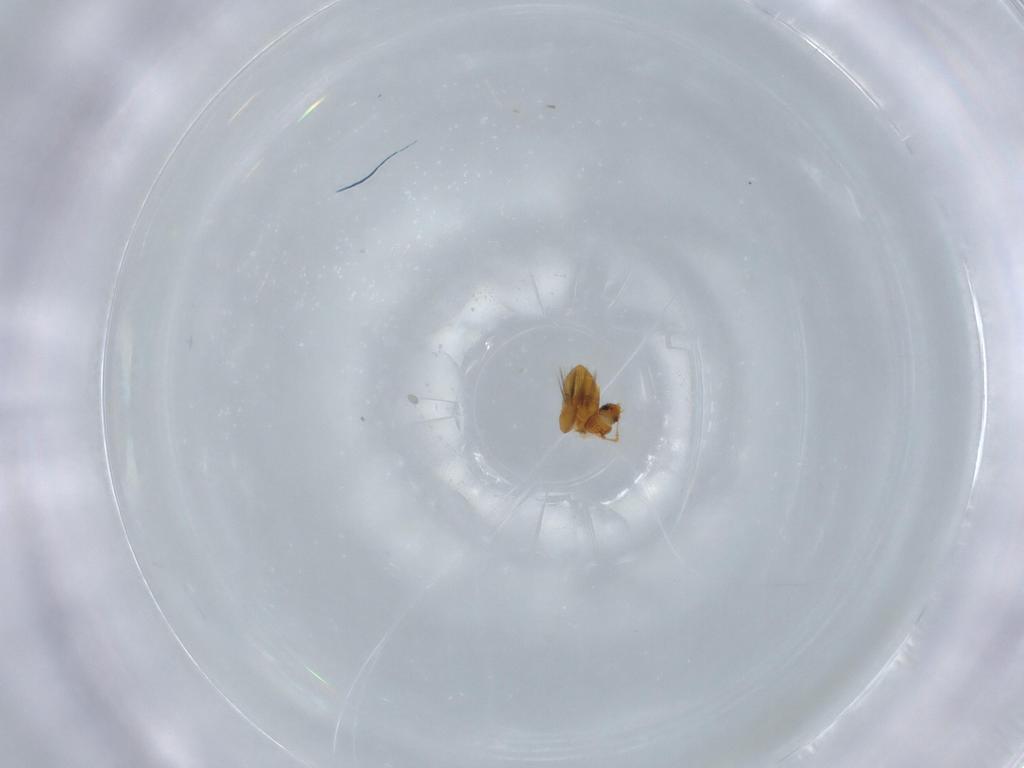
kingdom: Animalia
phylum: Arthropoda
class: Insecta
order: Coleoptera
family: Ptiliidae
